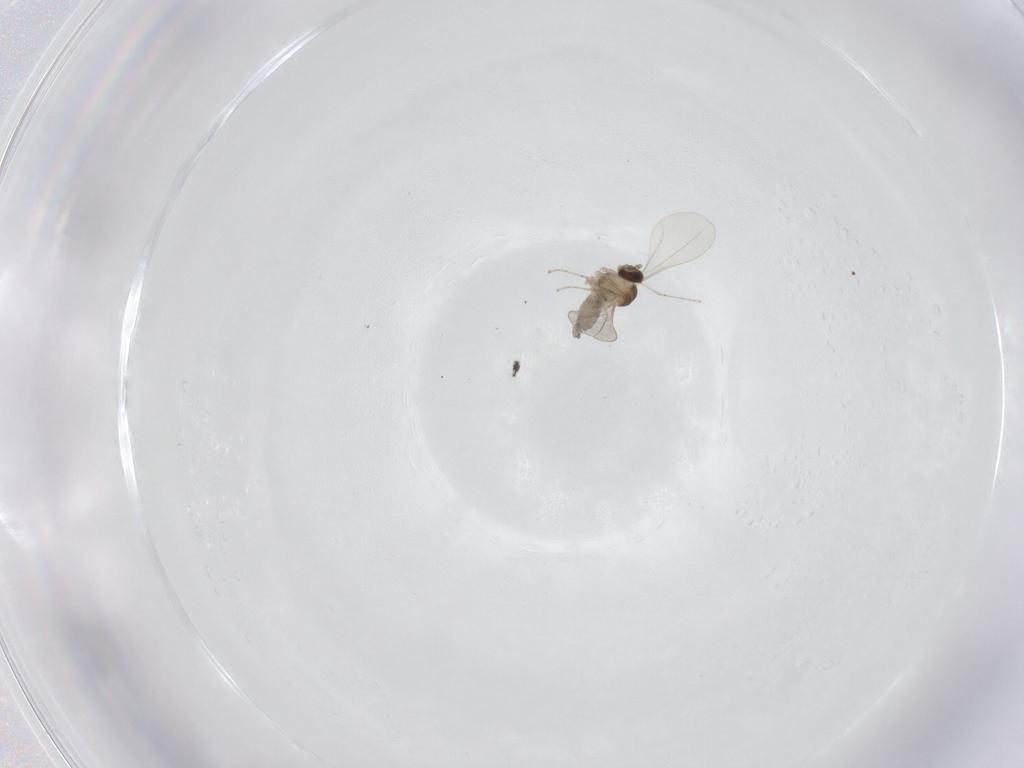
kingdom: Animalia
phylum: Arthropoda
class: Insecta
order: Diptera
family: Cecidomyiidae
